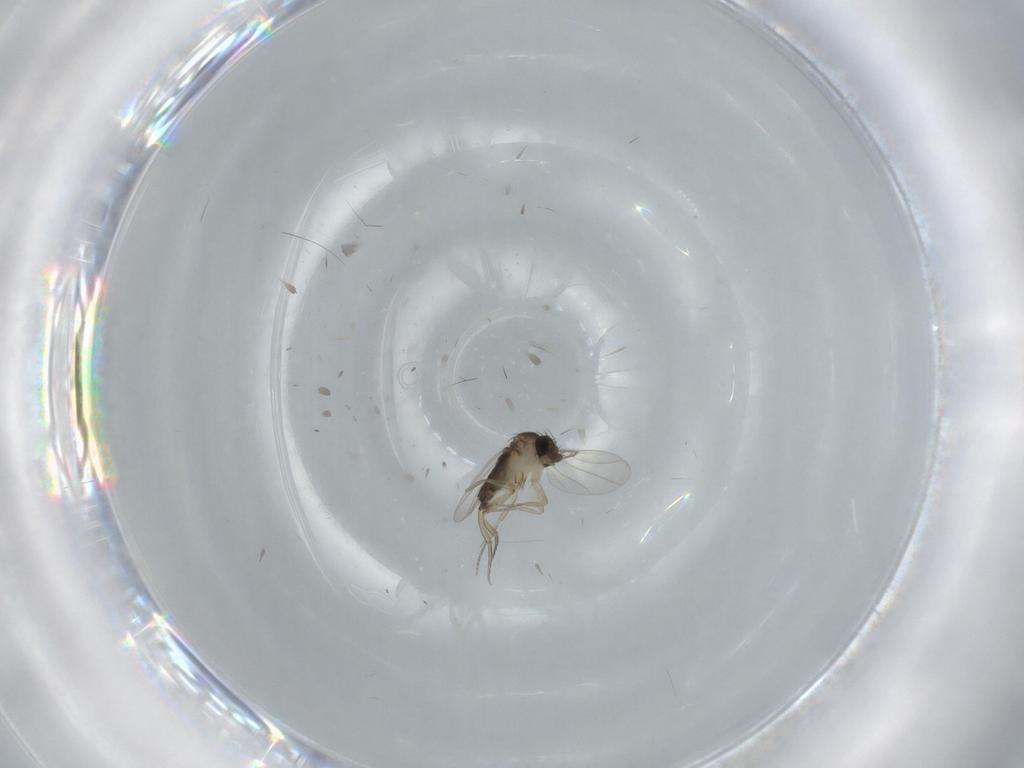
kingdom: Animalia
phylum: Arthropoda
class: Insecta
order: Diptera
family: Phoridae
